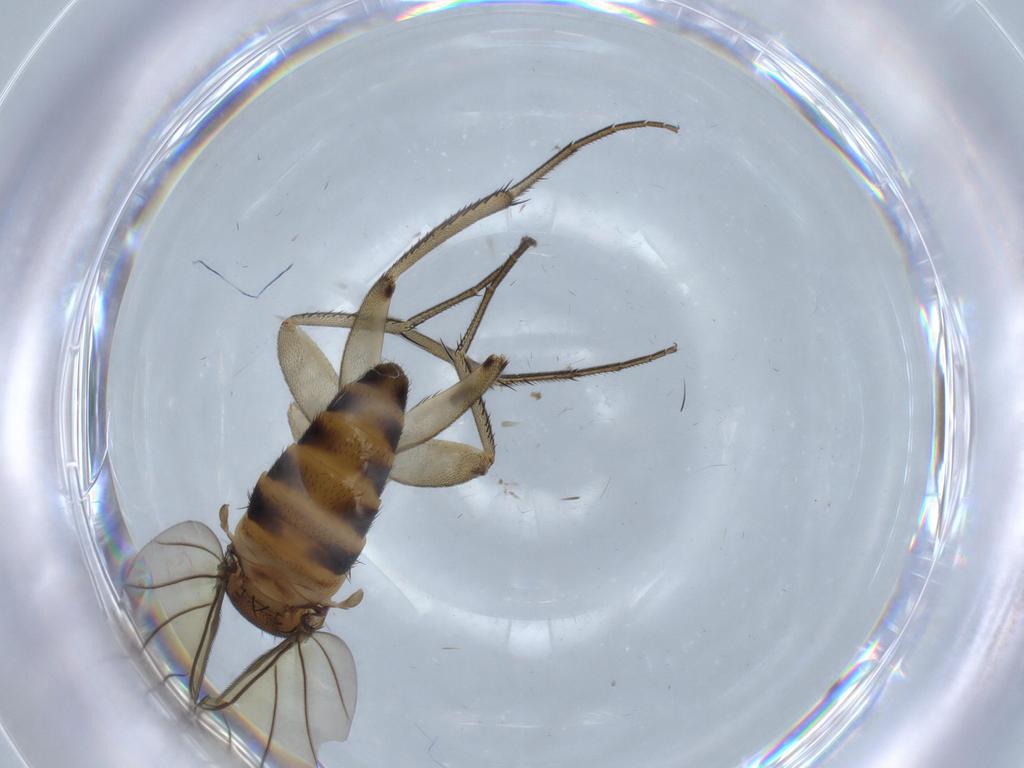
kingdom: Animalia
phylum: Arthropoda
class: Insecta
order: Diptera
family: Phoridae
